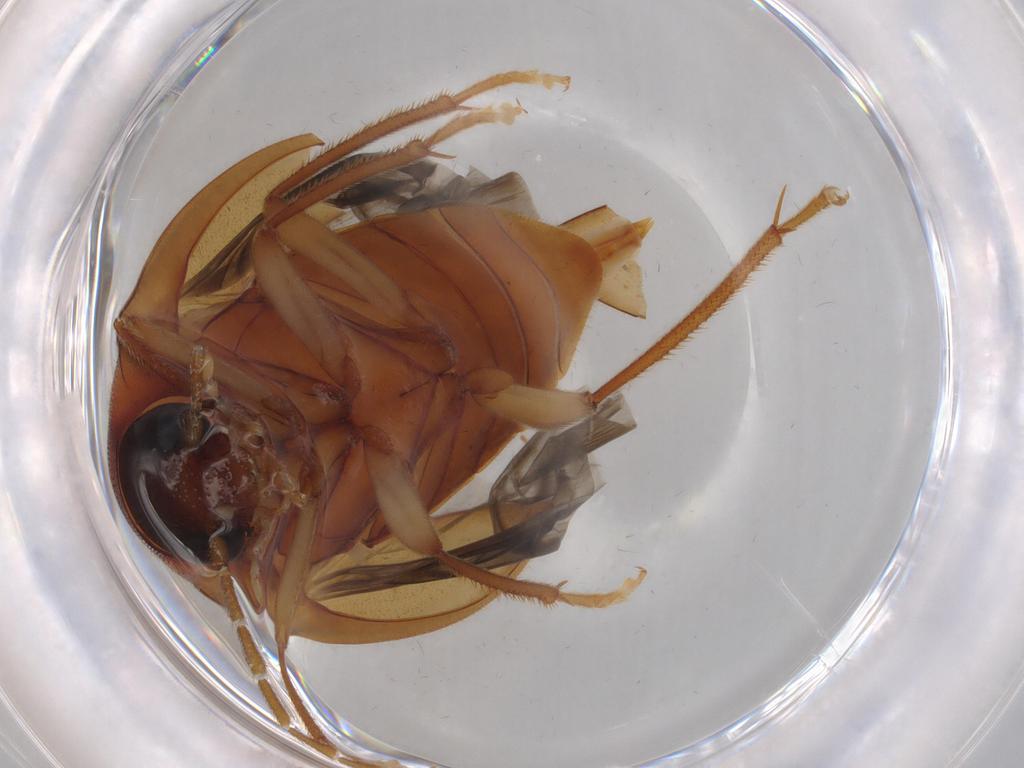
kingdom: Animalia
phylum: Arthropoda
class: Insecta
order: Coleoptera
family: Ptilodactylidae
